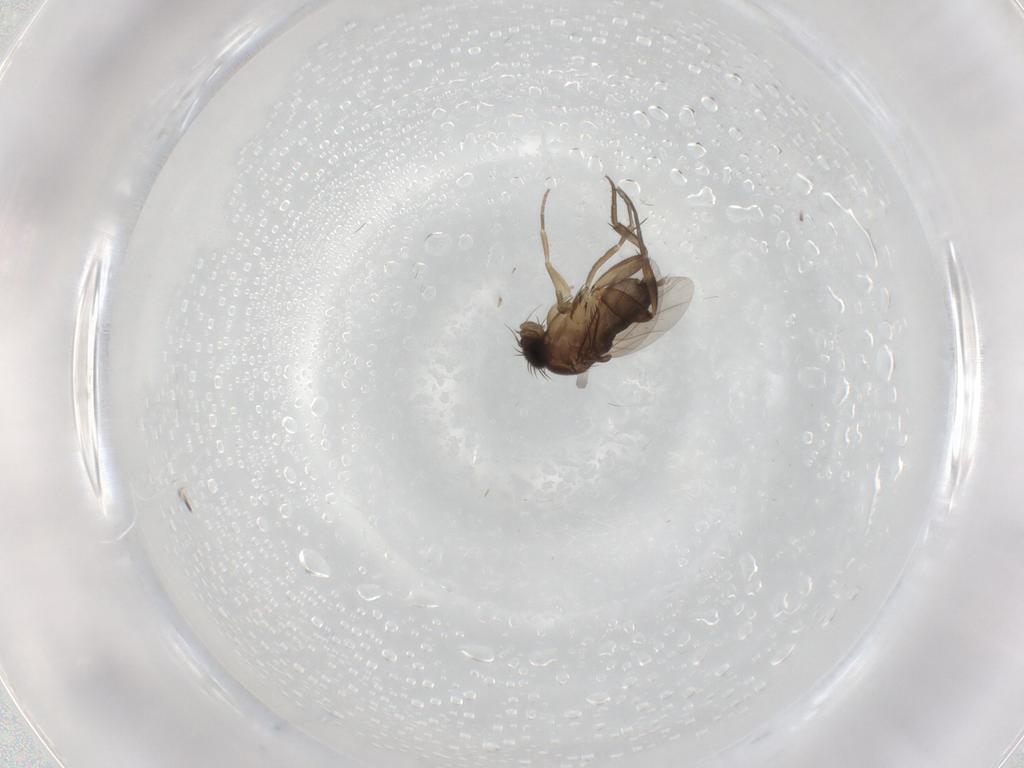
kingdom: Animalia
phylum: Arthropoda
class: Insecta
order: Diptera
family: Phoridae
